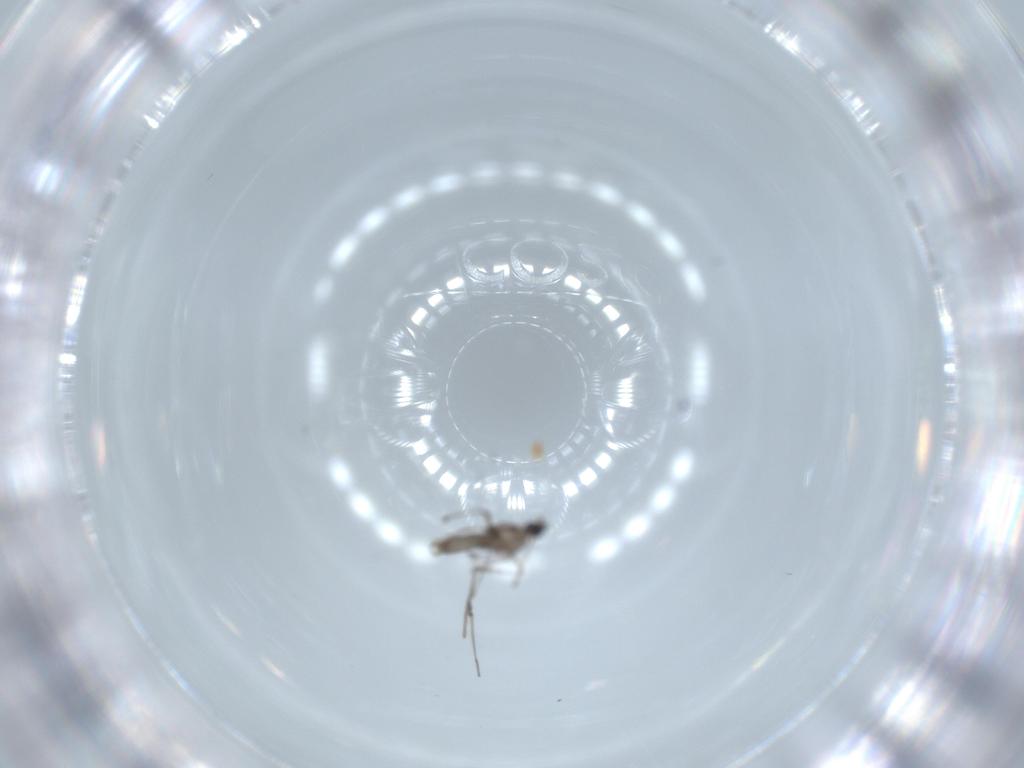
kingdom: Animalia
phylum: Arthropoda
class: Insecta
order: Diptera
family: Cecidomyiidae
